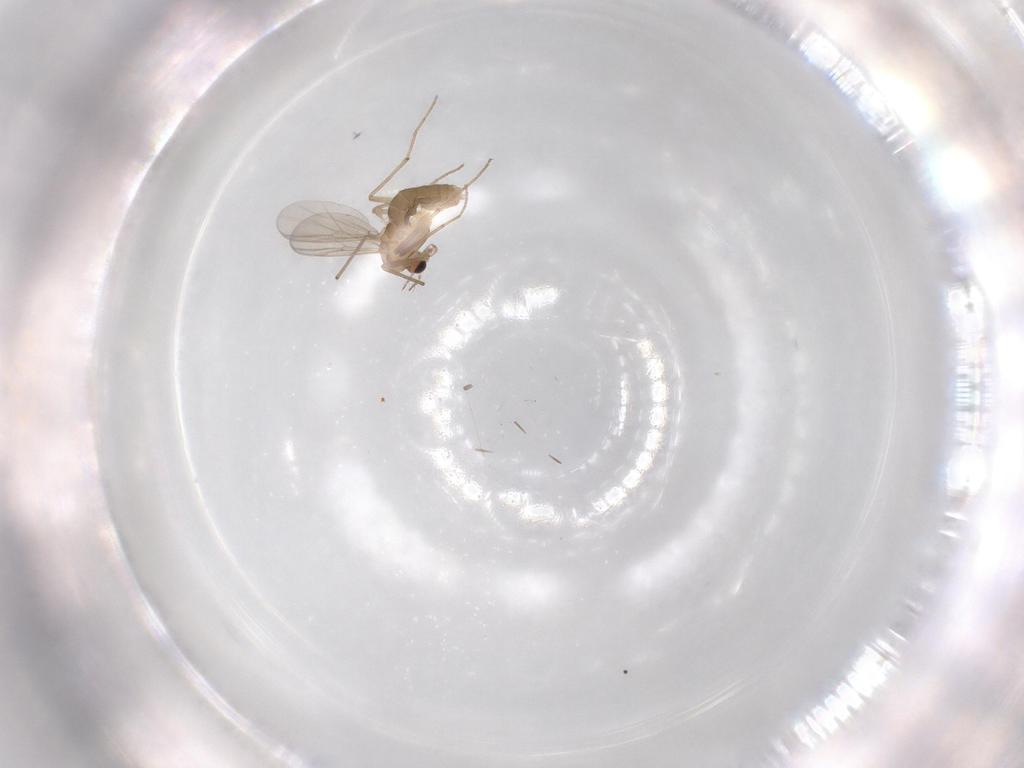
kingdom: Animalia
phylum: Arthropoda
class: Insecta
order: Diptera
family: Chironomidae
